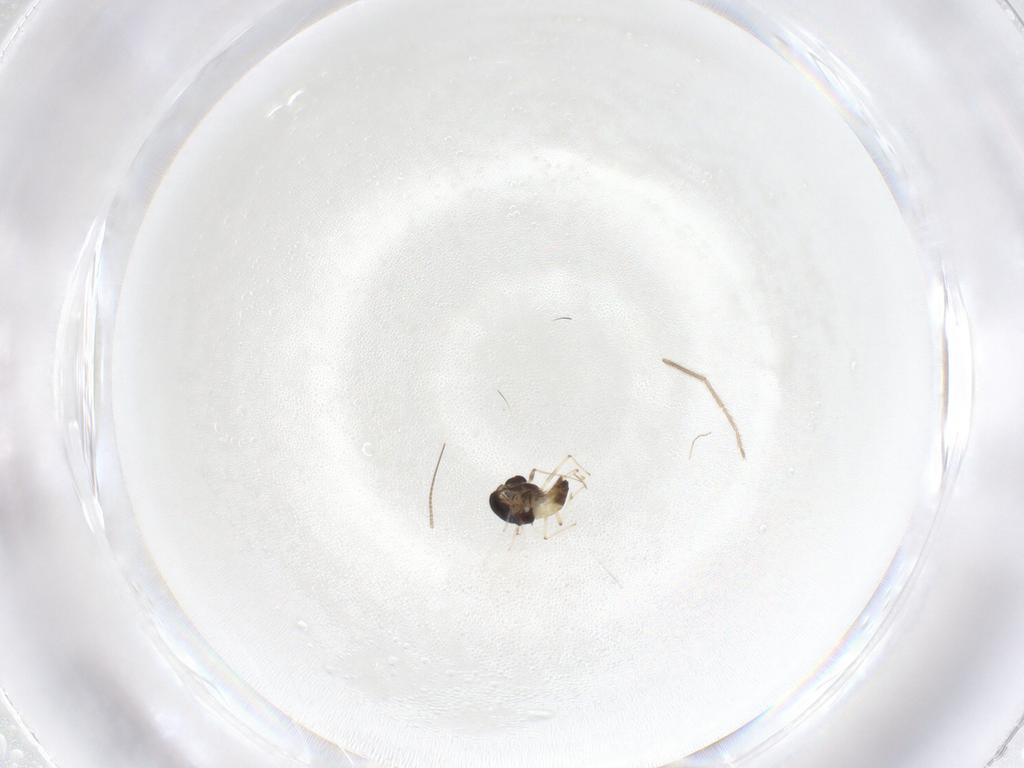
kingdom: Animalia
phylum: Arthropoda
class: Insecta
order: Diptera
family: Chironomidae
